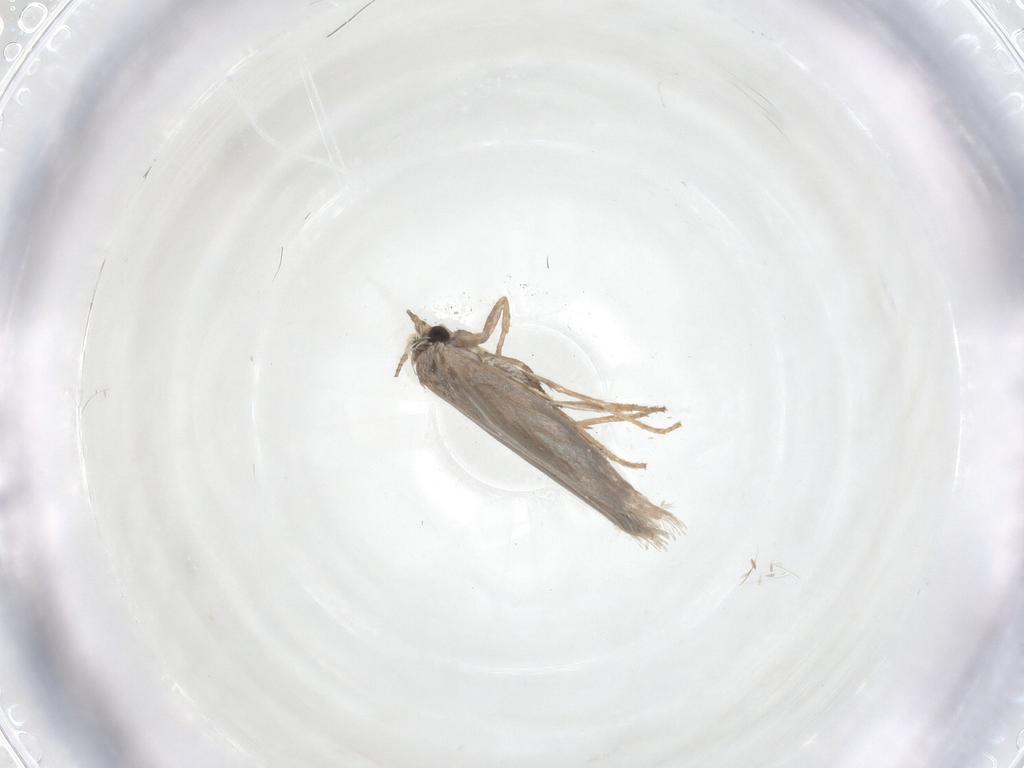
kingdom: Animalia
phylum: Arthropoda
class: Insecta
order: Lepidoptera
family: Nepticulidae
